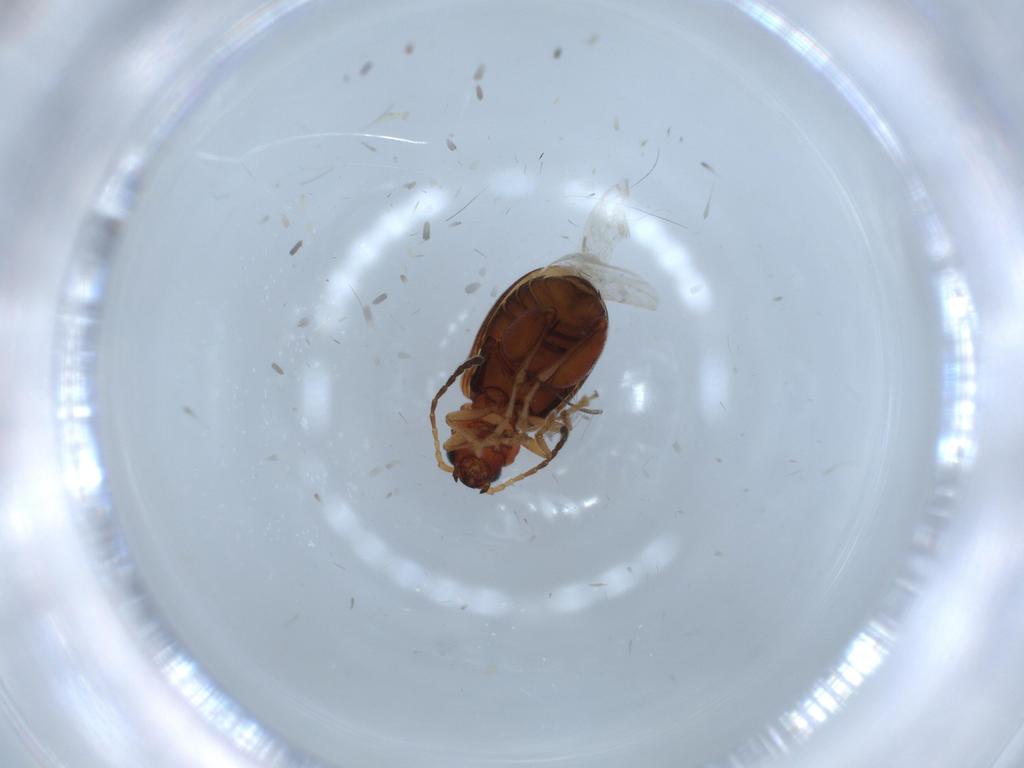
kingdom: Animalia
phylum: Arthropoda
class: Insecta
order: Coleoptera
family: Chrysomelidae
